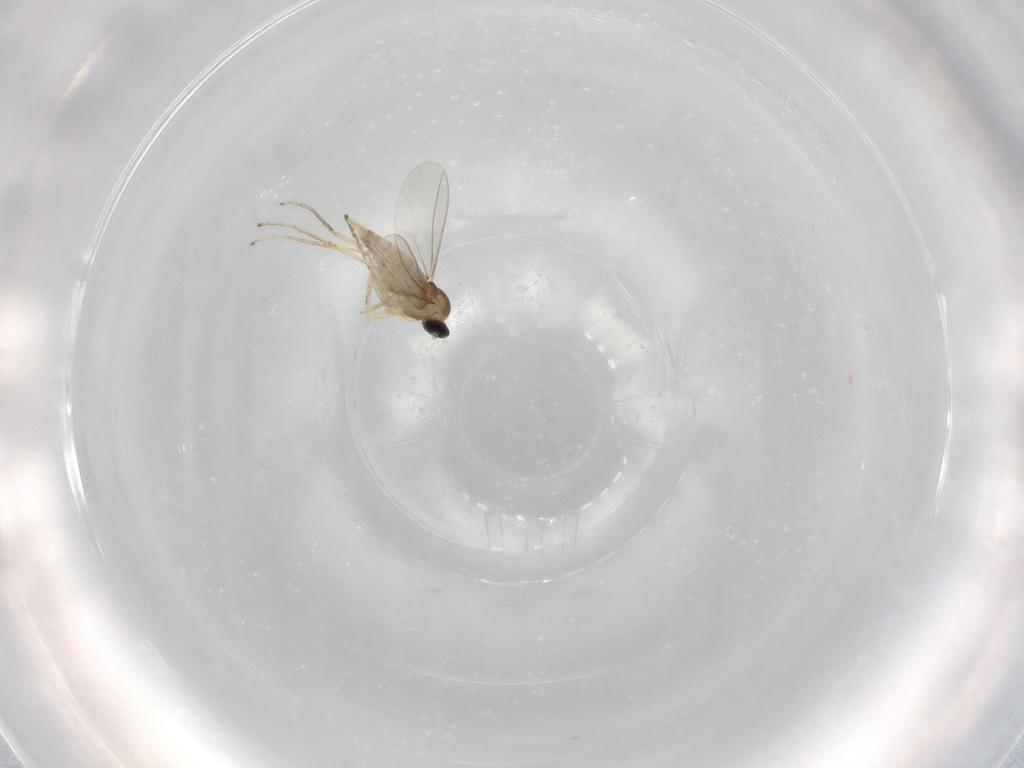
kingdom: Animalia
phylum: Arthropoda
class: Insecta
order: Diptera
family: Cecidomyiidae
